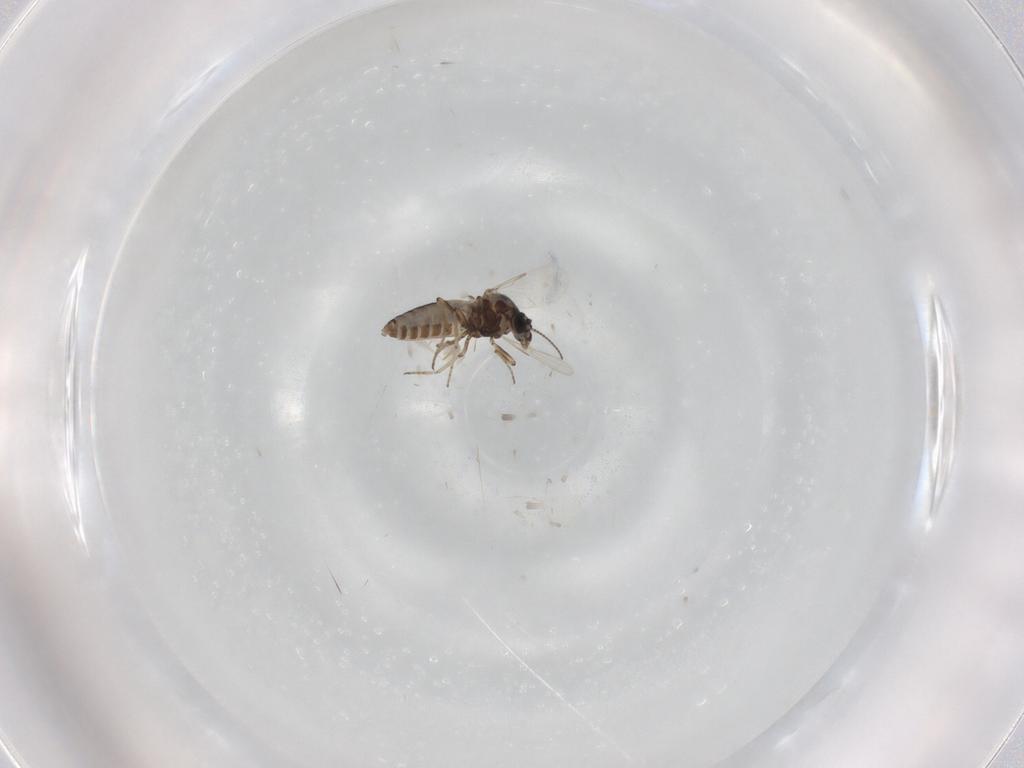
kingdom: Animalia
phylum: Arthropoda
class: Insecta
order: Diptera
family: Ceratopogonidae
